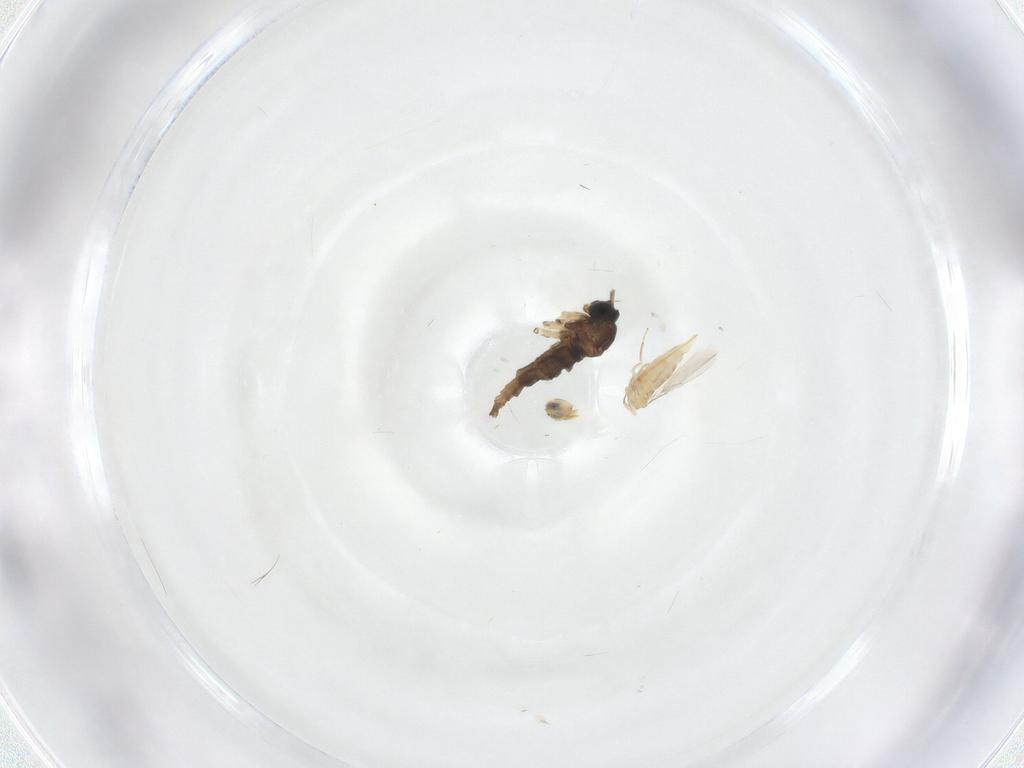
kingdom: Animalia
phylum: Arthropoda
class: Insecta
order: Hymenoptera
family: Aphelinidae
